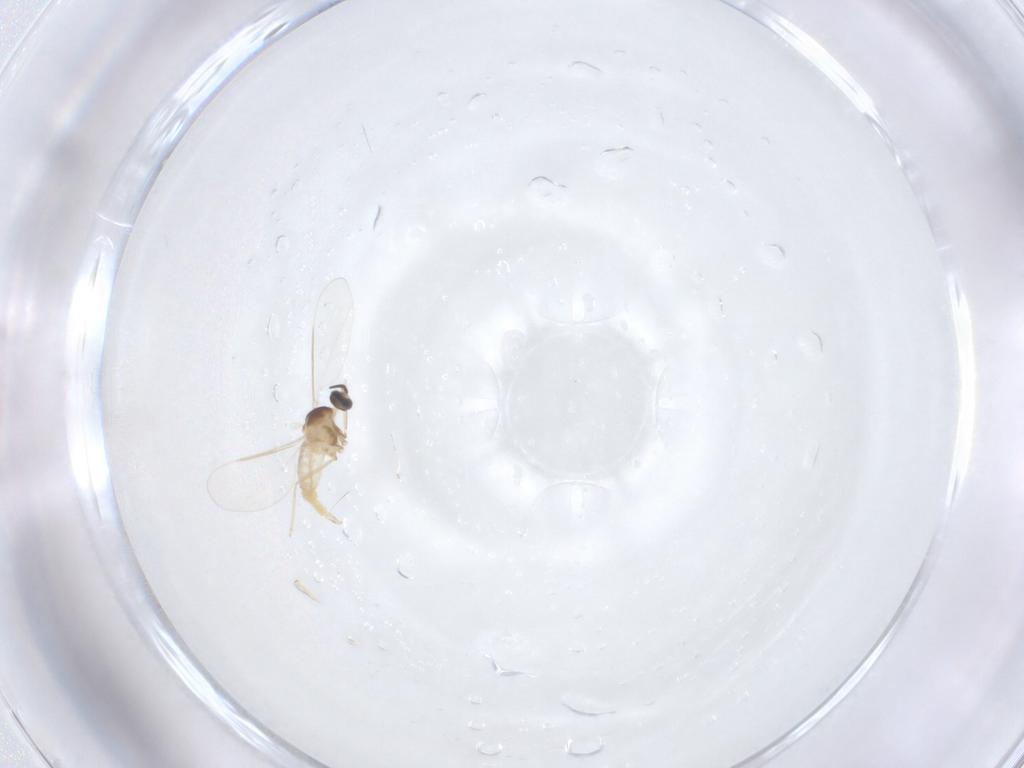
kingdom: Animalia
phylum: Arthropoda
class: Insecta
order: Diptera
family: Cecidomyiidae
